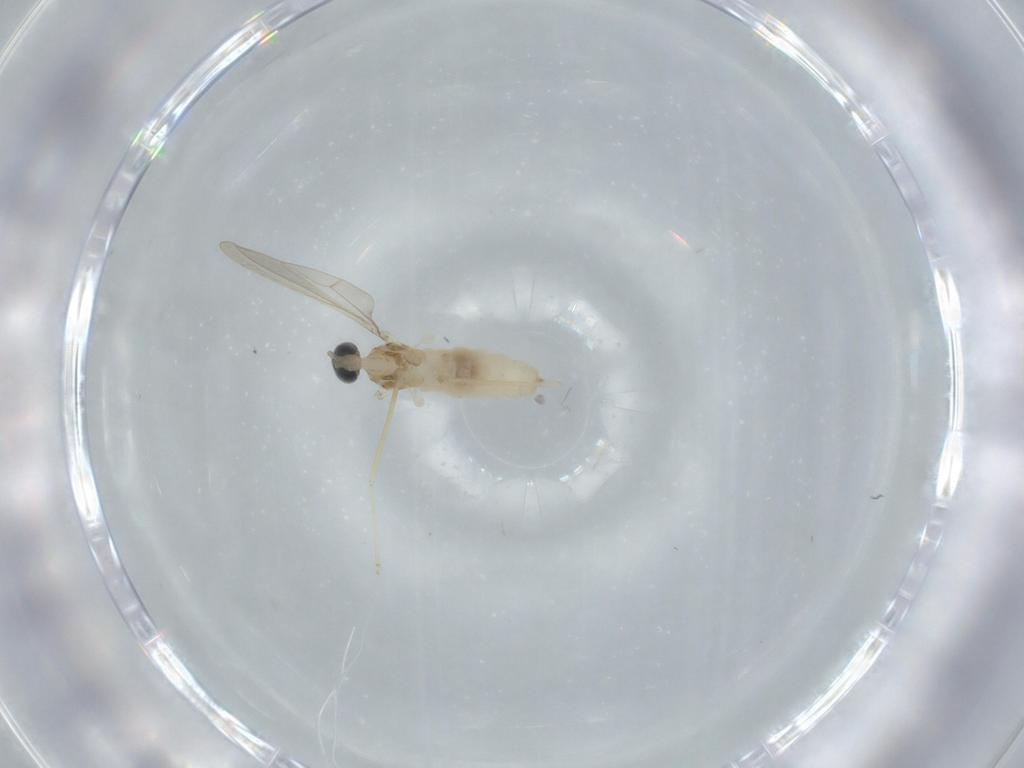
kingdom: Animalia
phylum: Arthropoda
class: Insecta
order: Diptera
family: Cecidomyiidae
